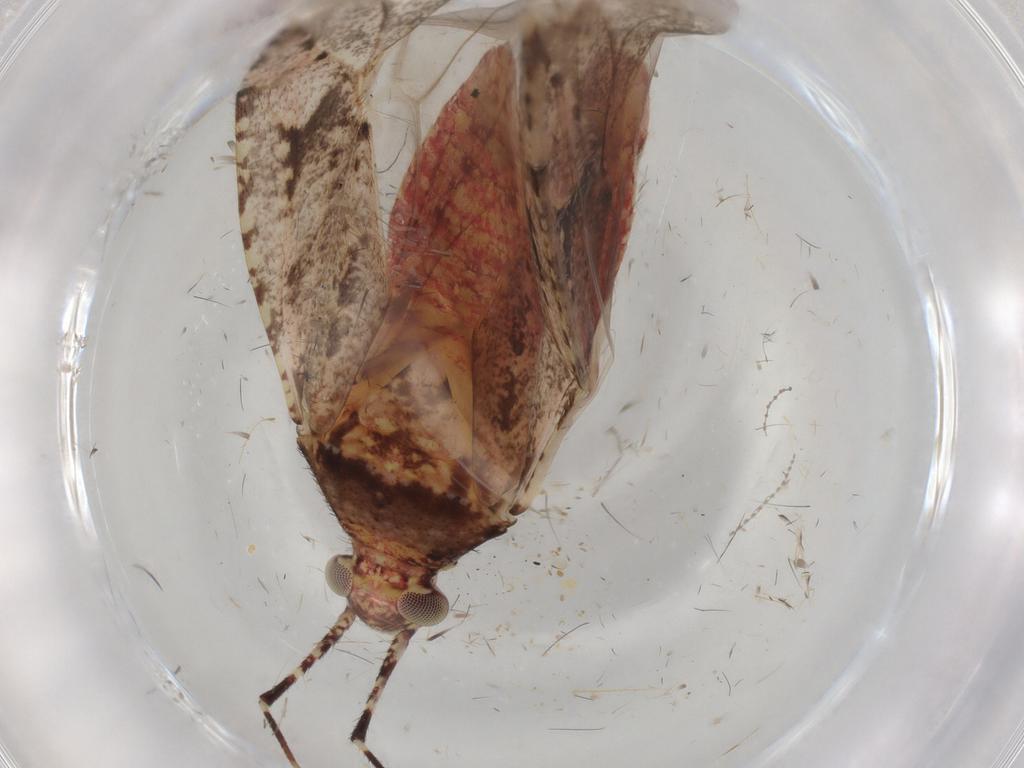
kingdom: Animalia
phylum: Arthropoda
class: Insecta
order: Hemiptera
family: Miridae
